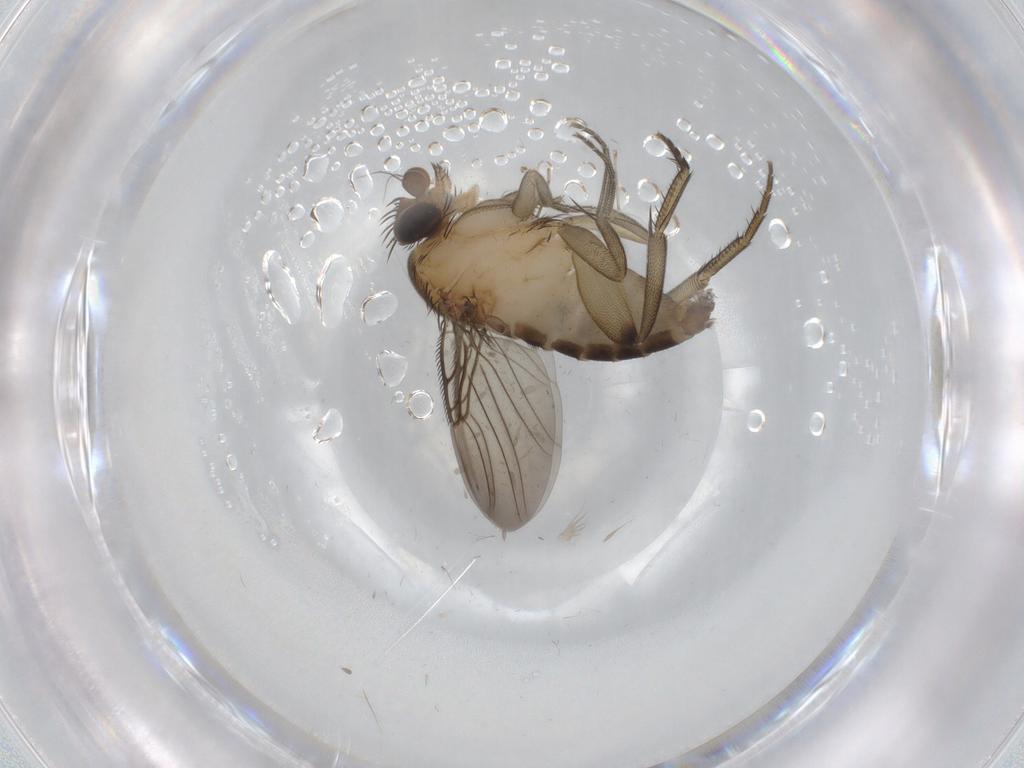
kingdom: Animalia
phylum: Arthropoda
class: Insecta
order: Diptera
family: Phoridae
